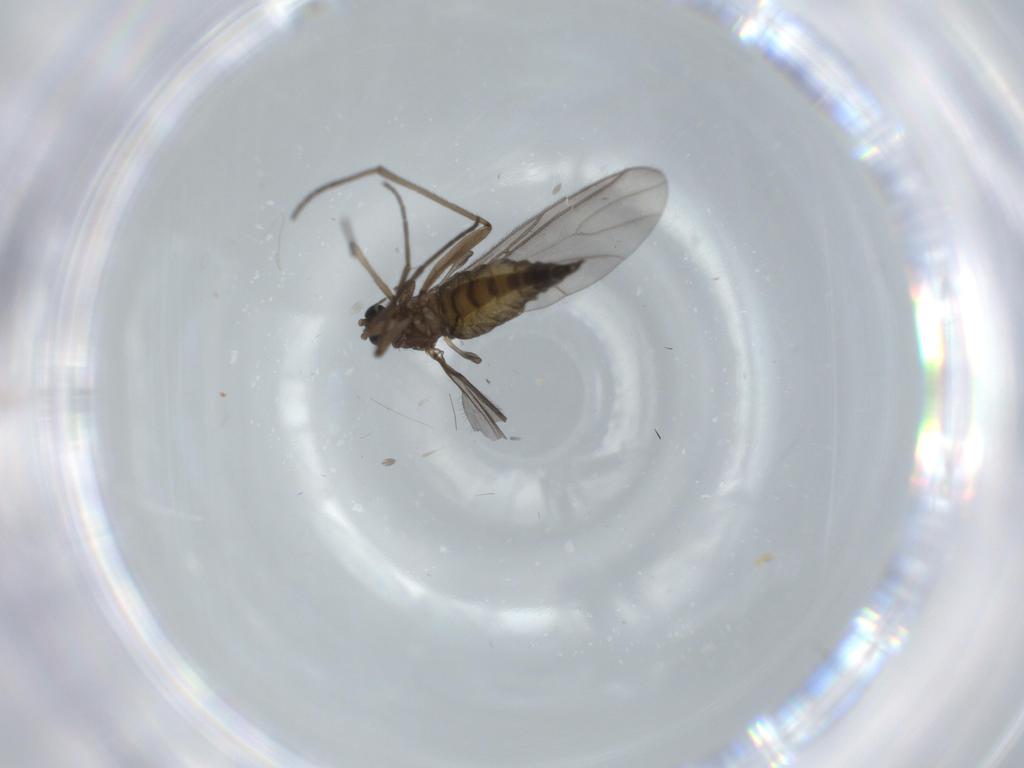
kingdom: Animalia
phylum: Arthropoda
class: Insecta
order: Diptera
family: Sciaridae
